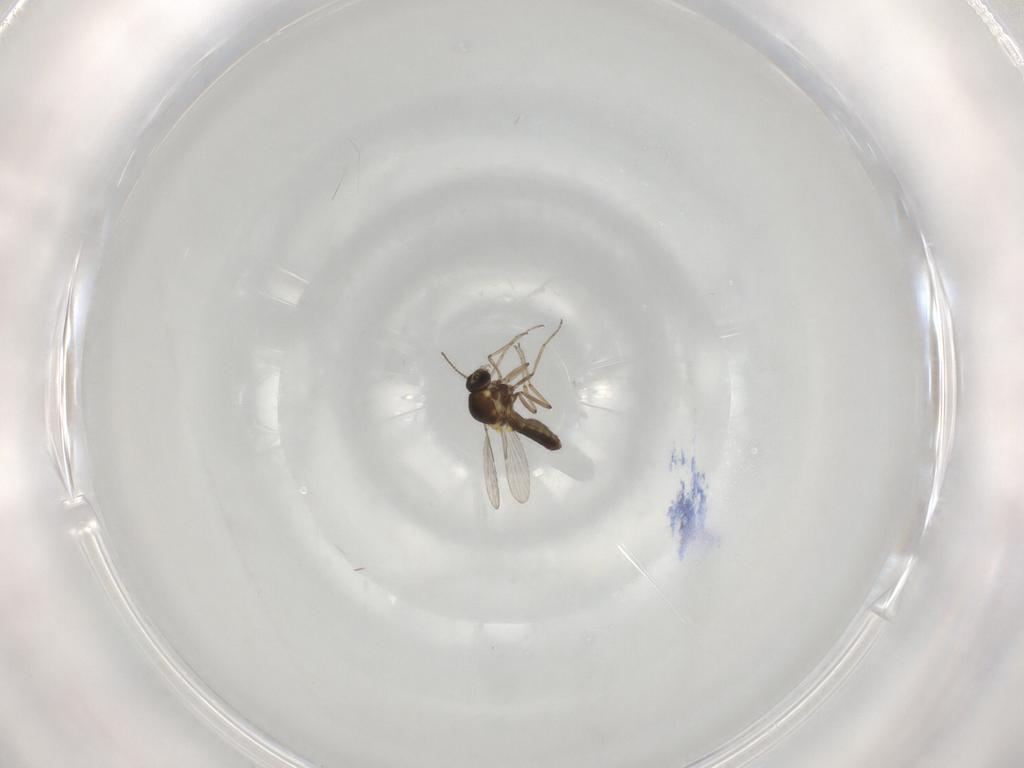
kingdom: Animalia
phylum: Arthropoda
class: Insecta
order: Diptera
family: Ceratopogonidae
